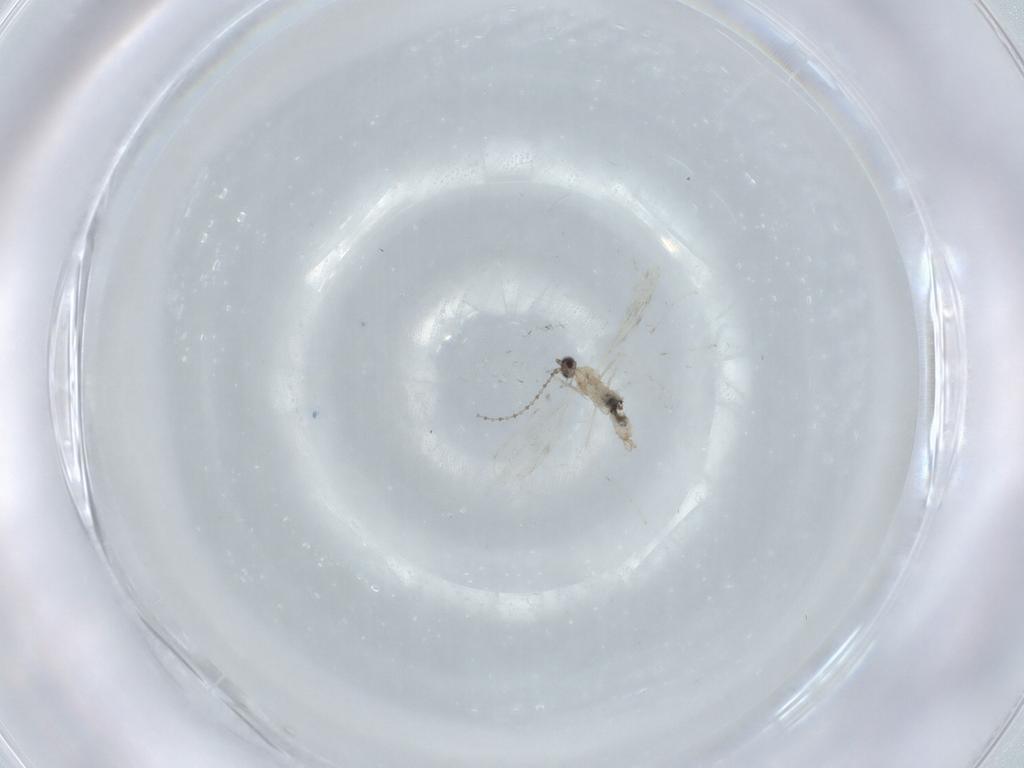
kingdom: Animalia
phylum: Arthropoda
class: Insecta
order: Diptera
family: Cecidomyiidae
